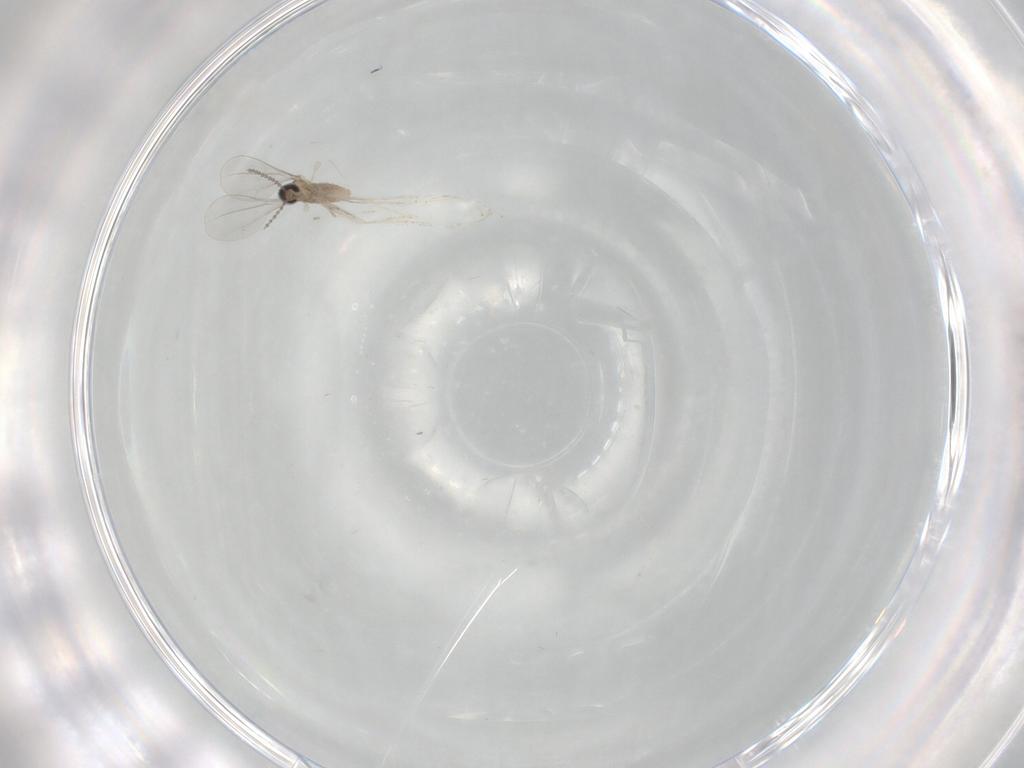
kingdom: Animalia
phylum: Arthropoda
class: Insecta
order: Diptera
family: Cecidomyiidae
